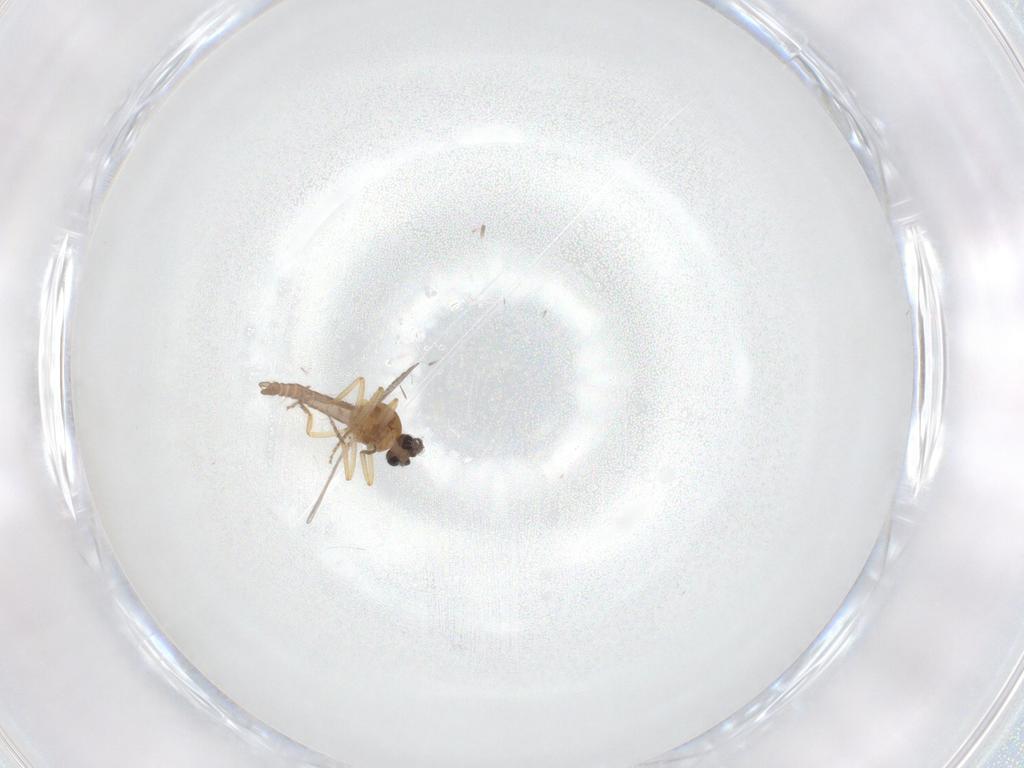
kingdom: Animalia
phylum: Arthropoda
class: Insecta
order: Diptera
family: Ceratopogonidae
